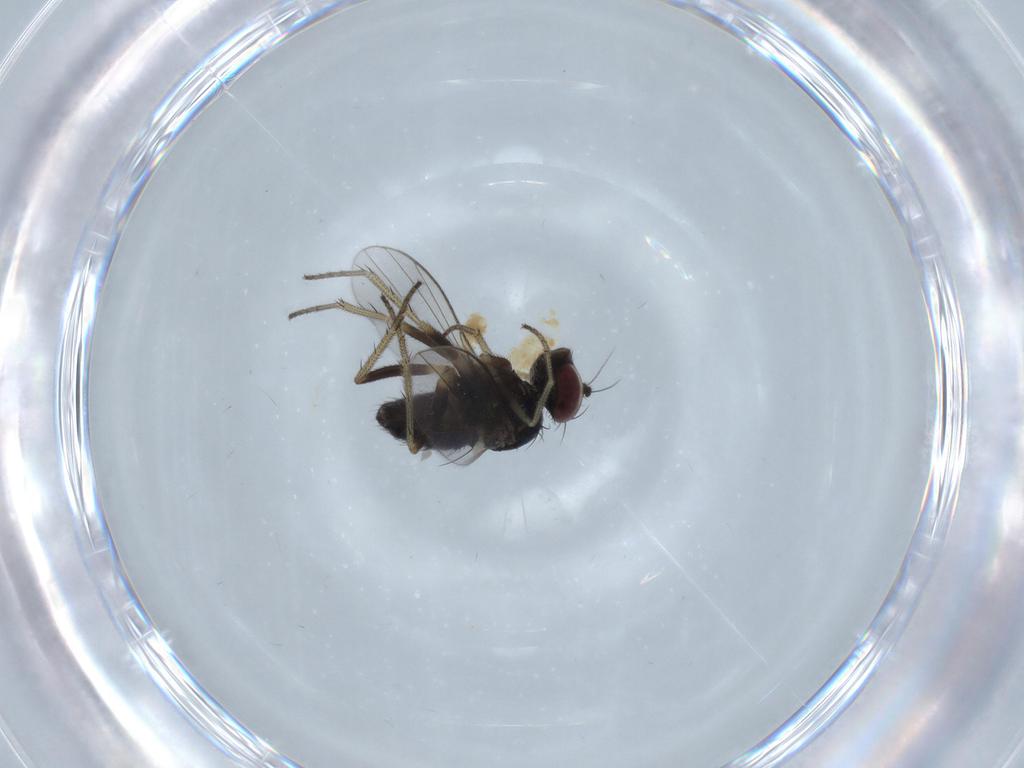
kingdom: Animalia
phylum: Arthropoda
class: Insecta
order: Diptera
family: Dolichopodidae
